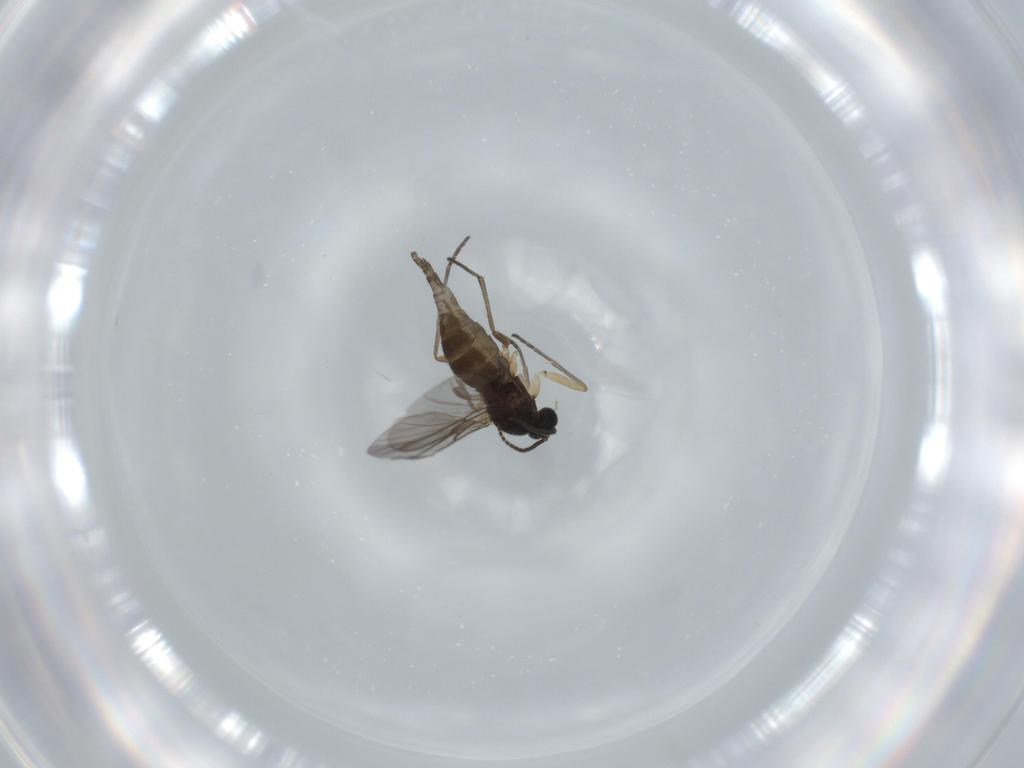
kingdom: Animalia
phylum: Arthropoda
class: Insecta
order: Diptera
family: Sciaridae
